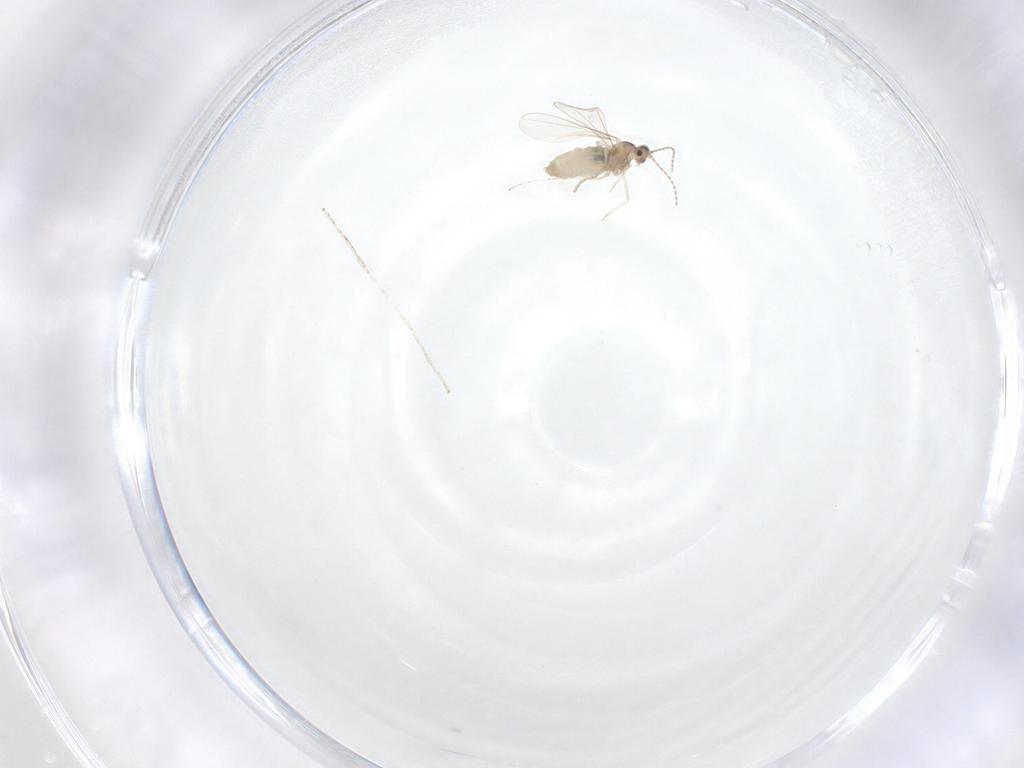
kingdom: Animalia
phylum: Arthropoda
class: Insecta
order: Diptera
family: Cecidomyiidae
